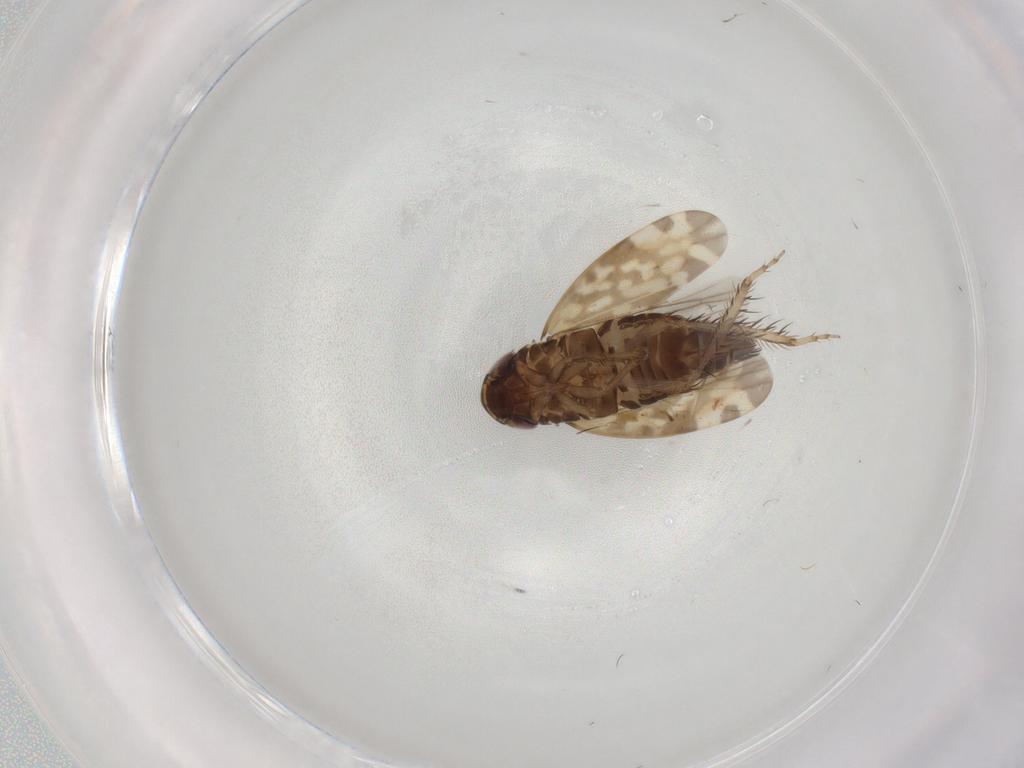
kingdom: Animalia
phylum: Arthropoda
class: Insecta
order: Hemiptera
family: Cicadellidae
